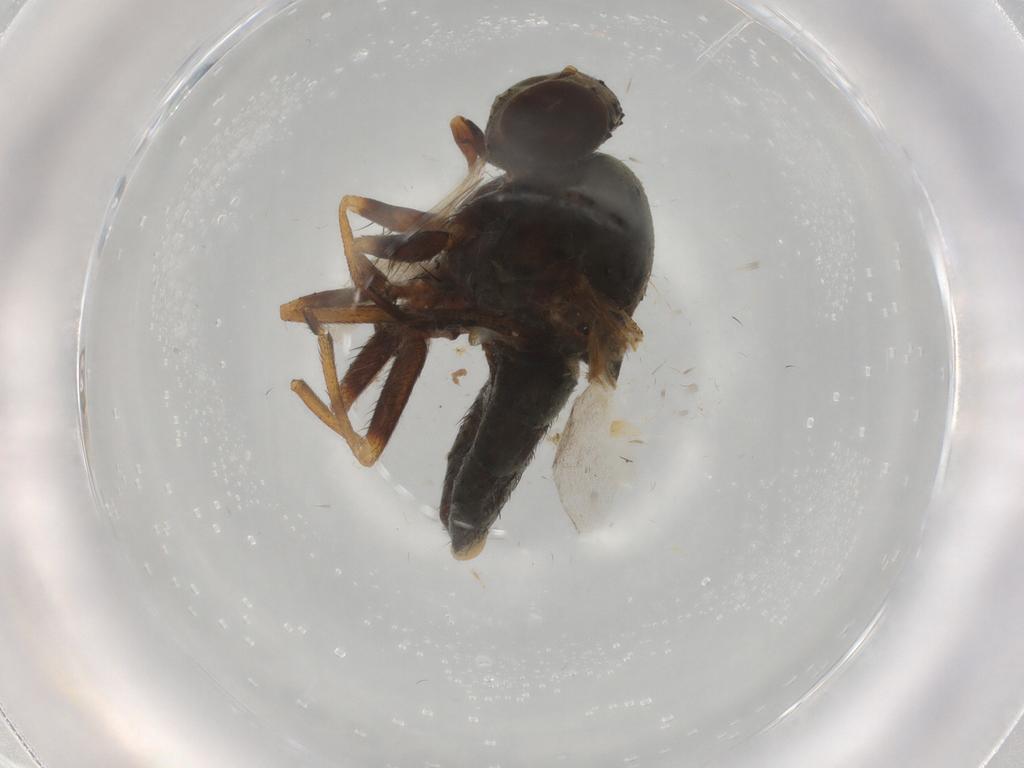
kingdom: Animalia
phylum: Arthropoda
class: Insecta
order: Diptera
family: Ephydridae
